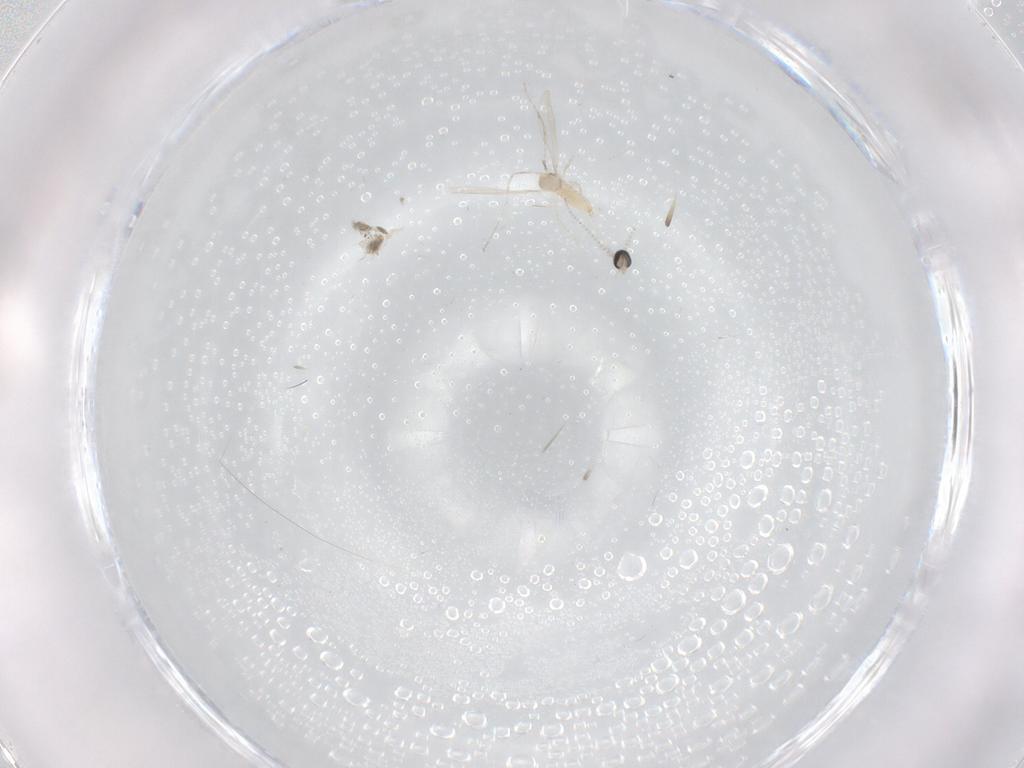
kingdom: Animalia
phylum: Arthropoda
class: Insecta
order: Diptera
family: Cecidomyiidae
